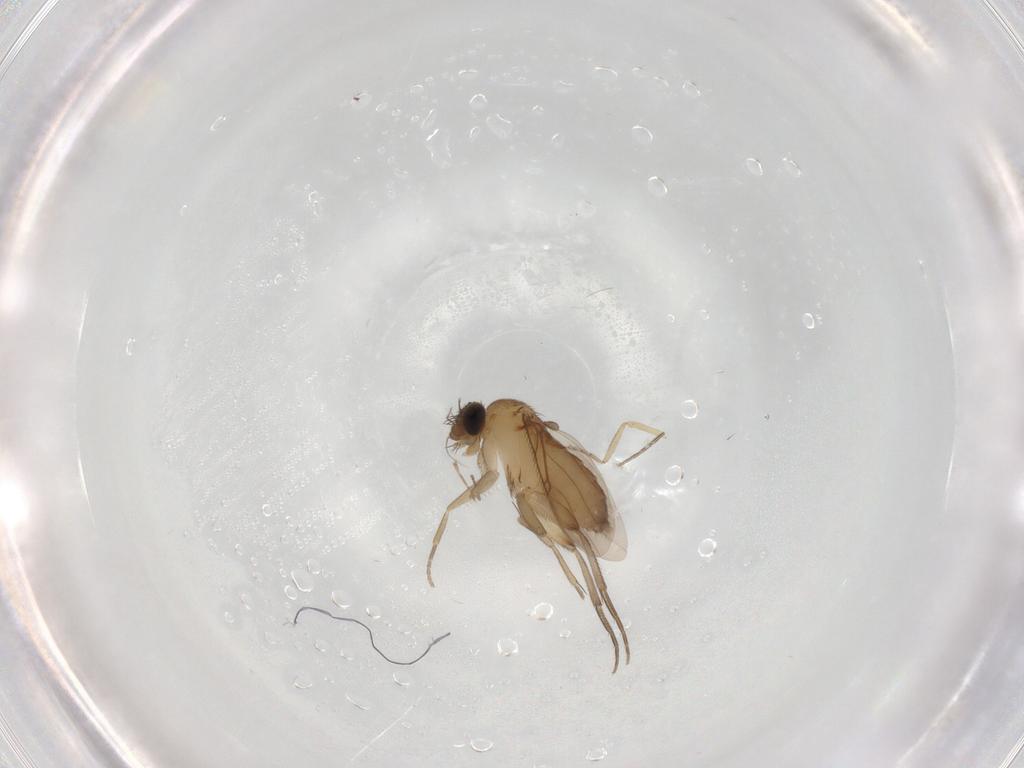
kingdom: Animalia
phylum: Arthropoda
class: Insecta
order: Diptera
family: Phoridae
